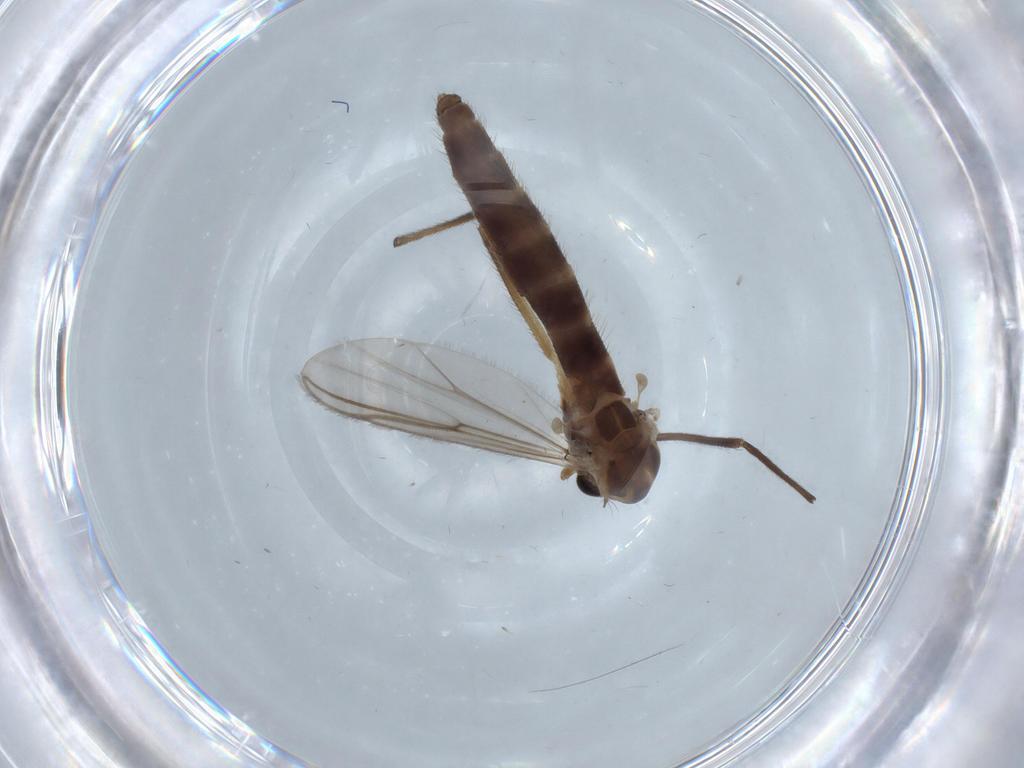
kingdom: Animalia
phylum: Arthropoda
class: Insecta
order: Diptera
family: Chironomidae
